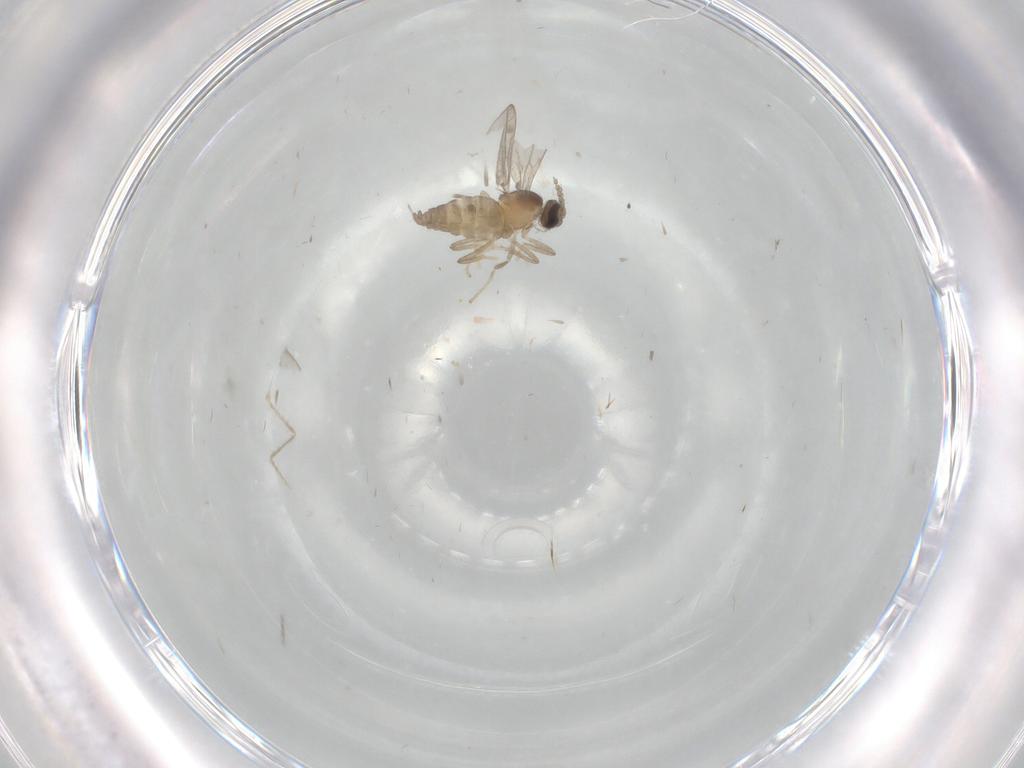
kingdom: Animalia
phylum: Arthropoda
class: Insecta
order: Diptera
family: Cecidomyiidae
